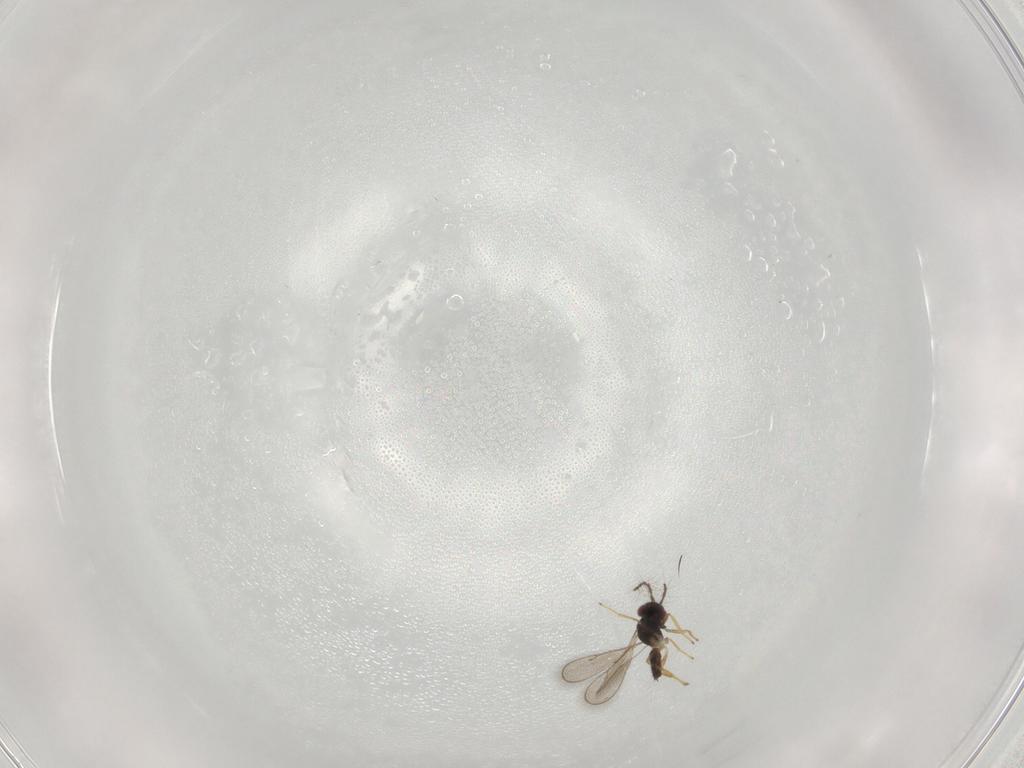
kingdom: Animalia
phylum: Arthropoda
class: Insecta
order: Hymenoptera
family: Eulophidae
